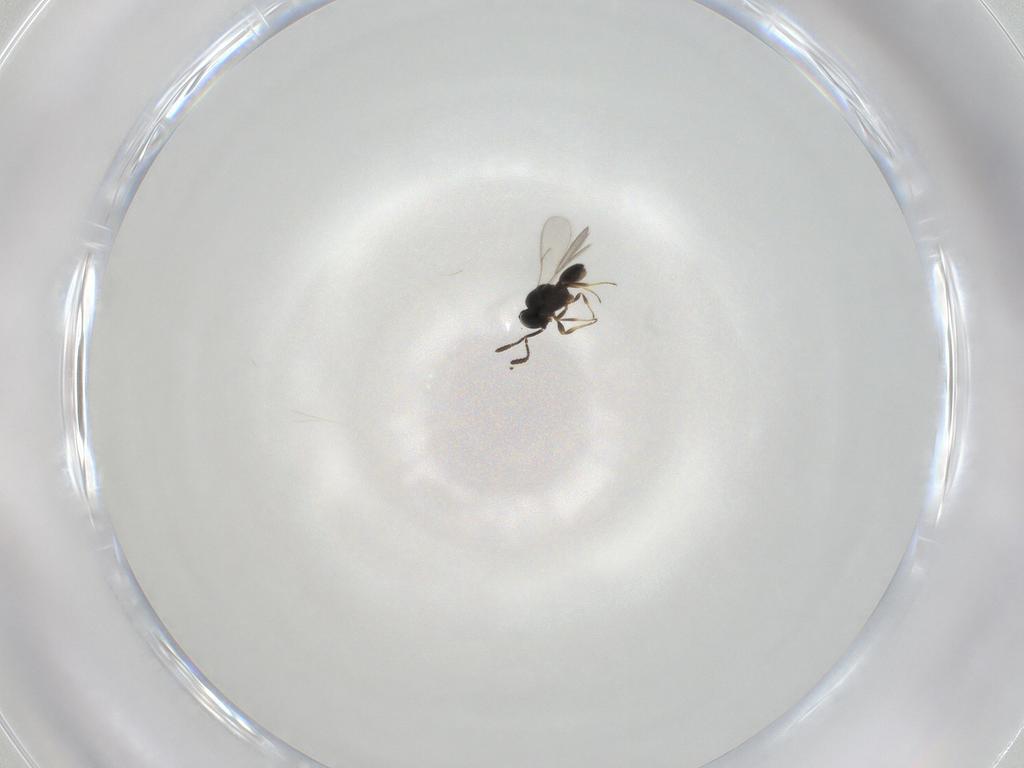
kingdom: Animalia
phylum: Arthropoda
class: Insecta
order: Hymenoptera
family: Scelionidae
